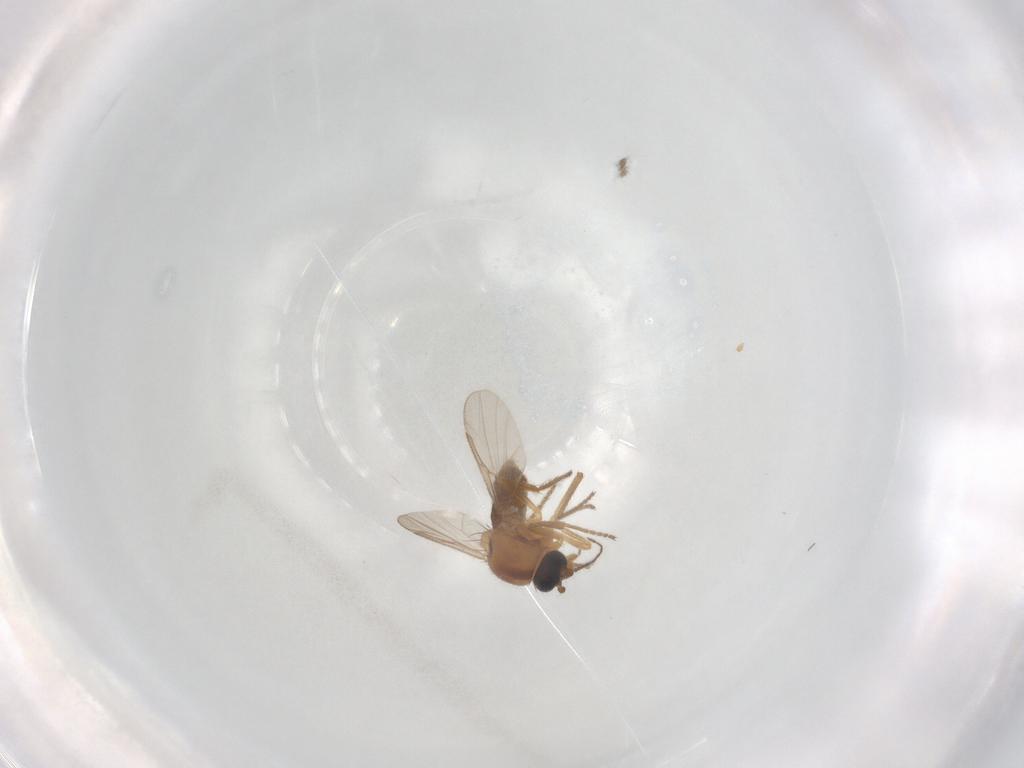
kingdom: Animalia
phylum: Arthropoda
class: Insecta
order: Diptera
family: Ceratopogonidae
